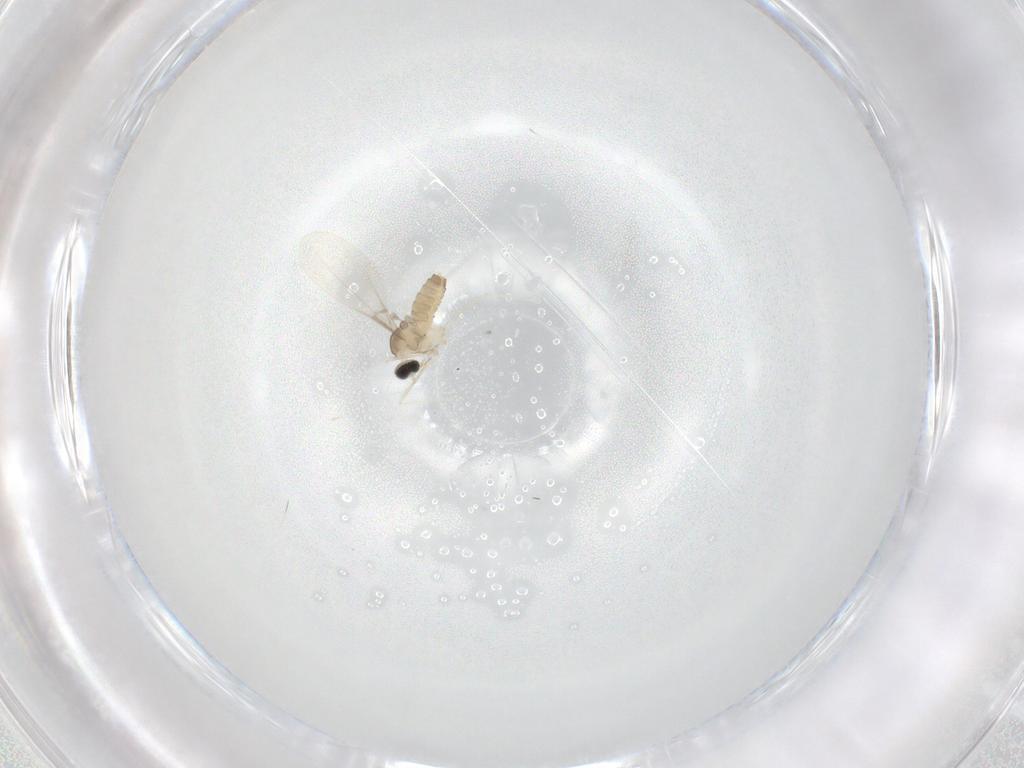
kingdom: Animalia
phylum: Arthropoda
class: Insecta
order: Diptera
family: Cecidomyiidae
